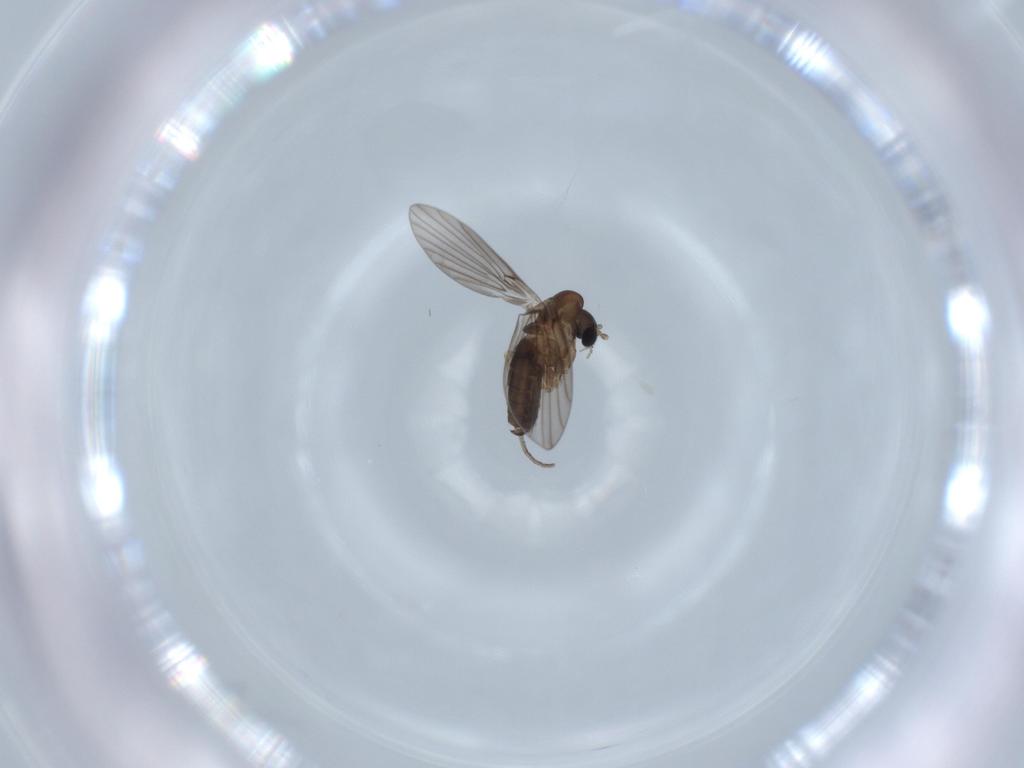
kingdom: Animalia
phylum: Arthropoda
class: Insecta
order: Diptera
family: Psychodidae
